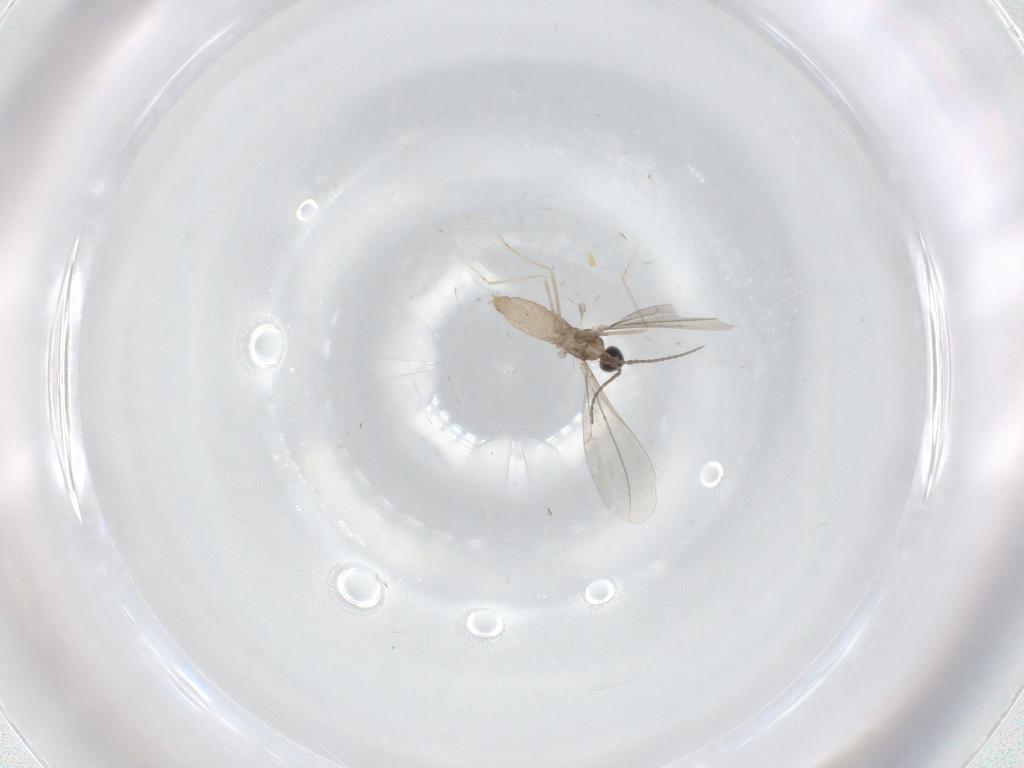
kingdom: Animalia
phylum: Arthropoda
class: Insecta
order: Diptera
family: Cecidomyiidae
